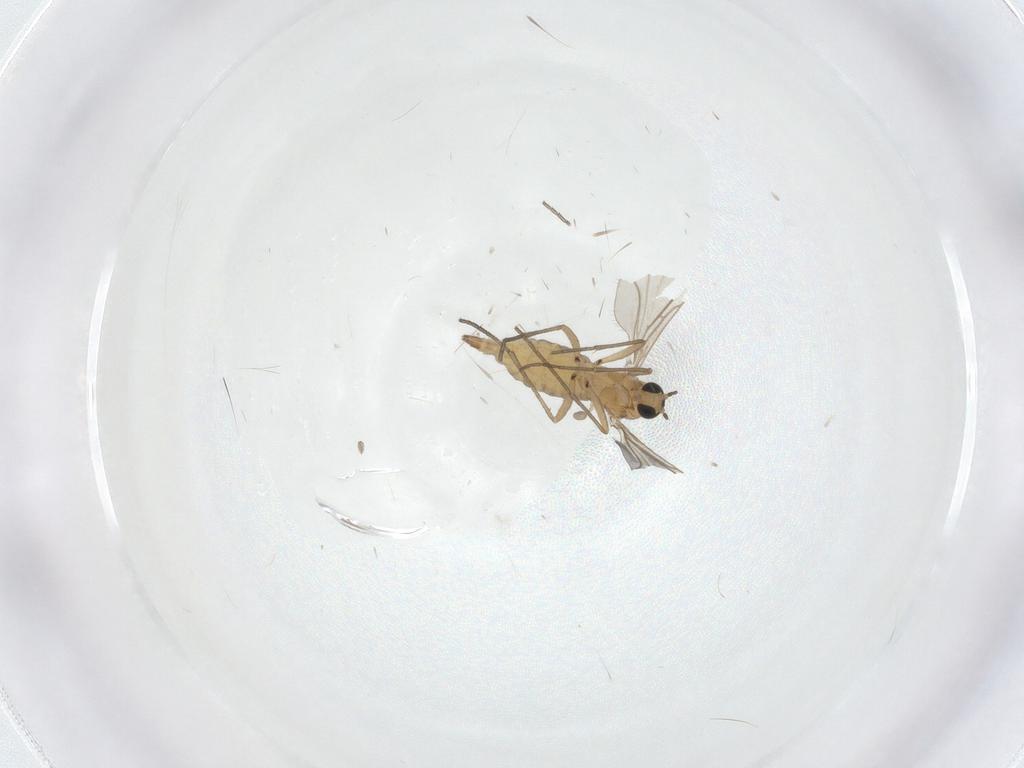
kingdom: Animalia
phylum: Arthropoda
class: Insecta
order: Diptera
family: Sciaridae
